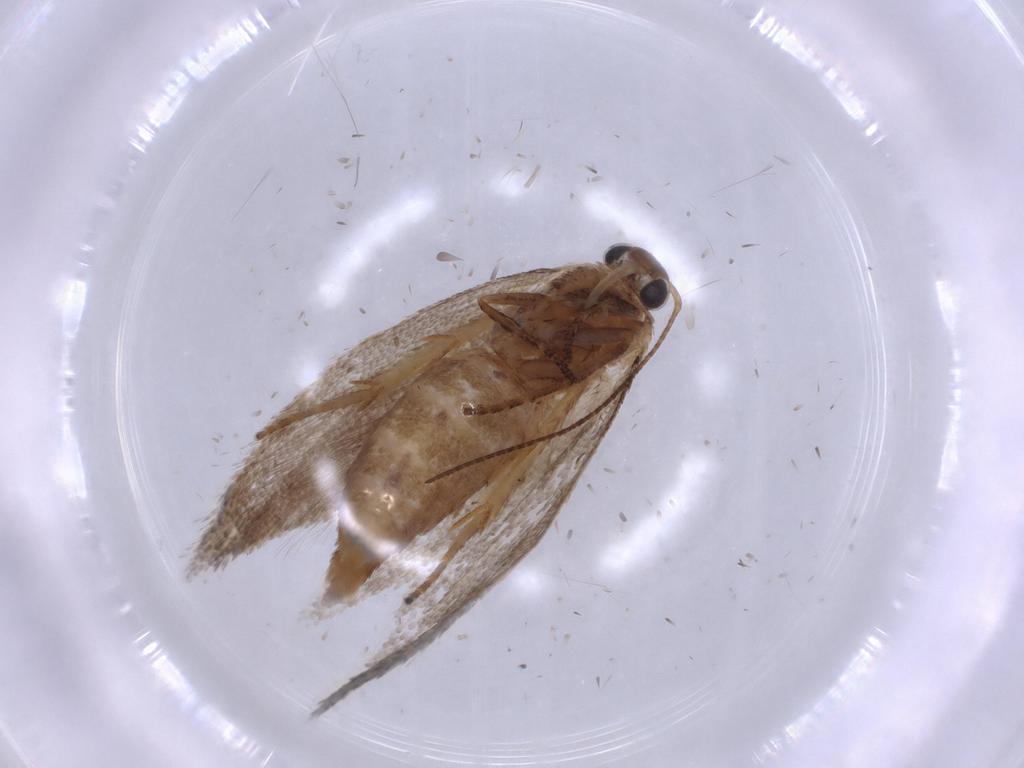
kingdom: Animalia
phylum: Arthropoda
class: Insecta
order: Lepidoptera
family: Oecophoridae
